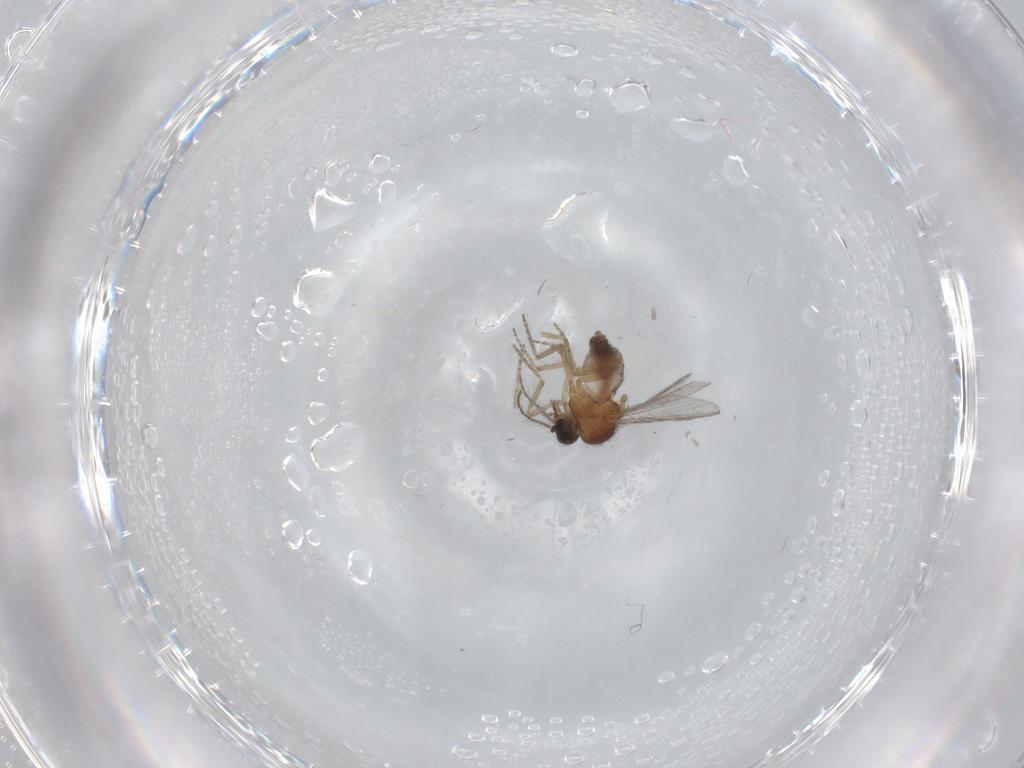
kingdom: Animalia
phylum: Arthropoda
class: Insecta
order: Diptera
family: Ceratopogonidae
